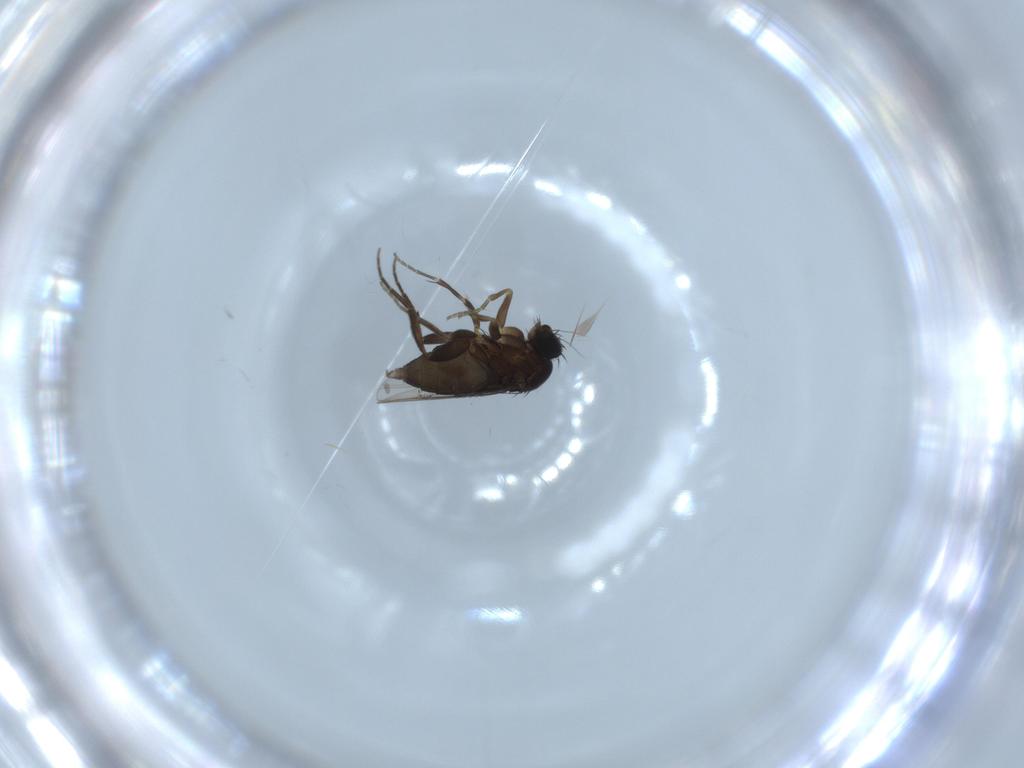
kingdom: Animalia
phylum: Arthropoda
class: Insecta
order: Diptera
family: Phoridae
